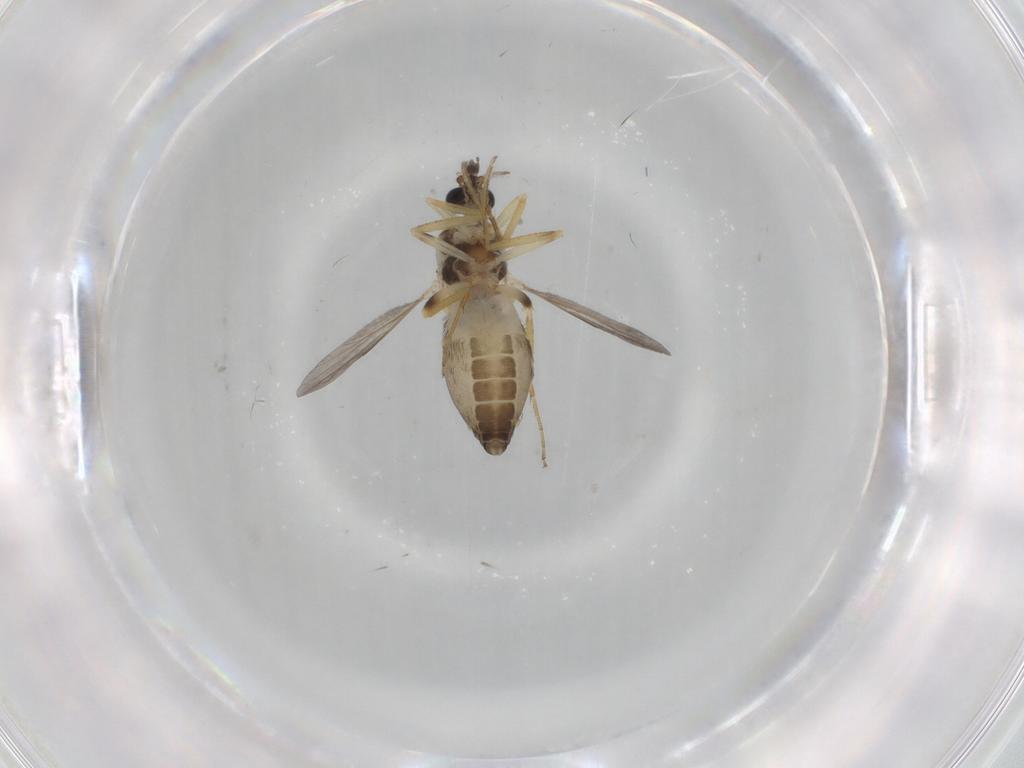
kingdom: Animalia
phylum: Arthropoda
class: Insecta
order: Diptera
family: Ceratopogonidae
